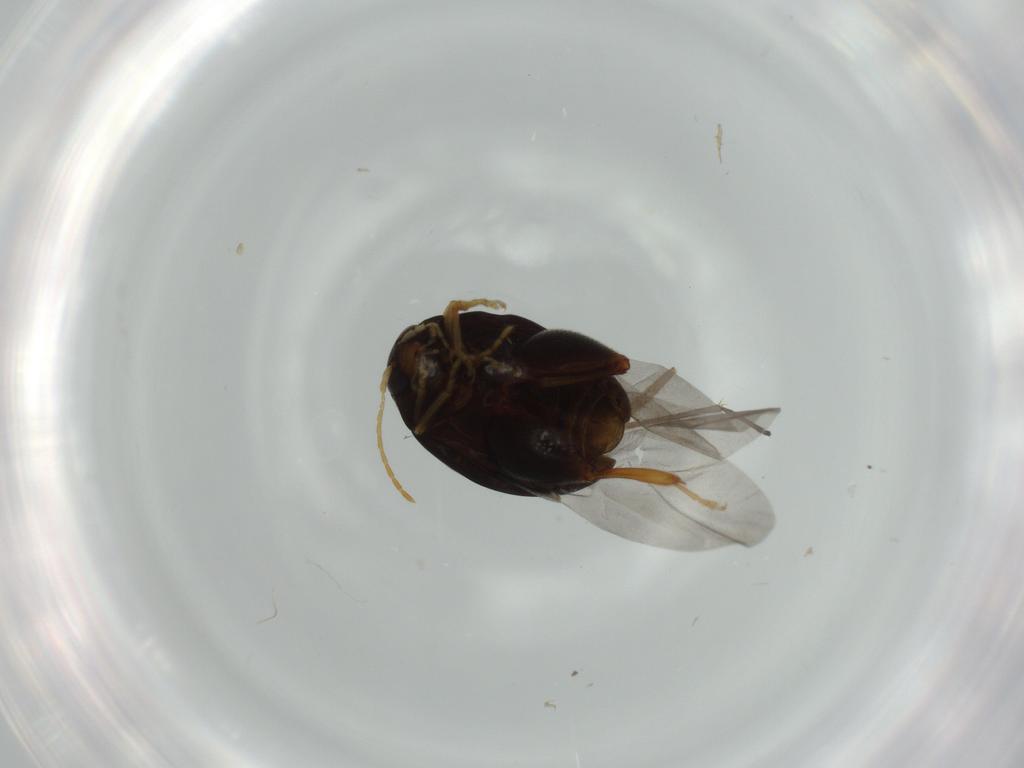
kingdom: Animalia
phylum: Arthropoda
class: Insecta
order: Coleoptera
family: Chrysomelidae
